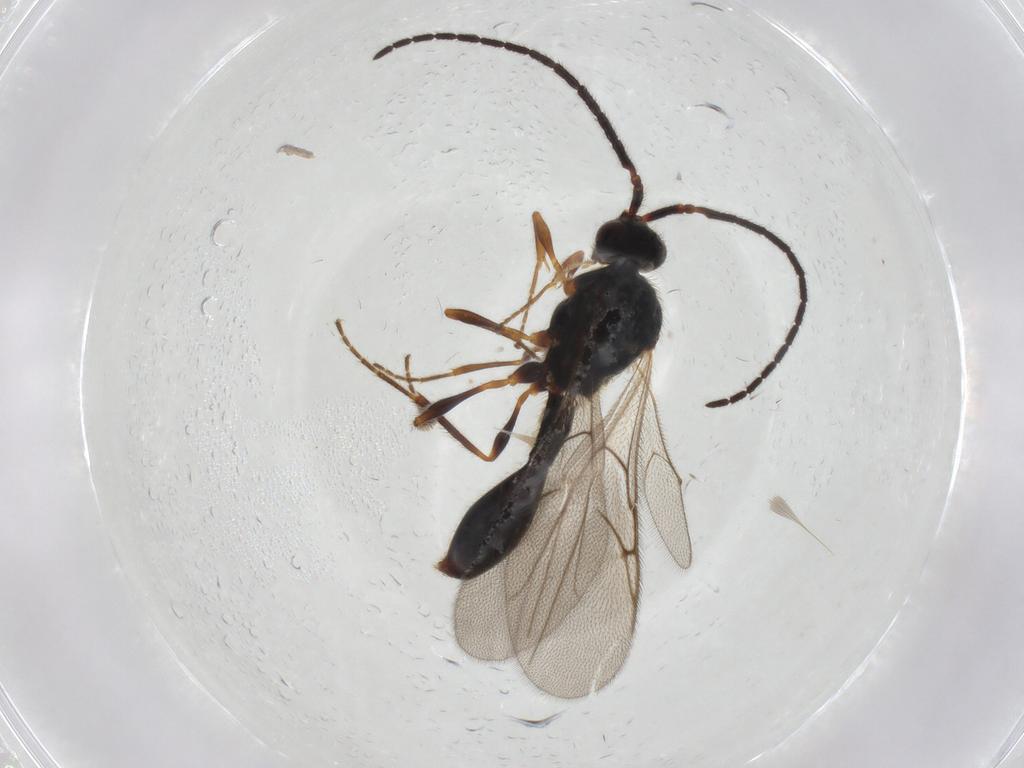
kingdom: Animalia
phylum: Arthropoda
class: Insecta
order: Hymenoptera
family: Diapriidae
